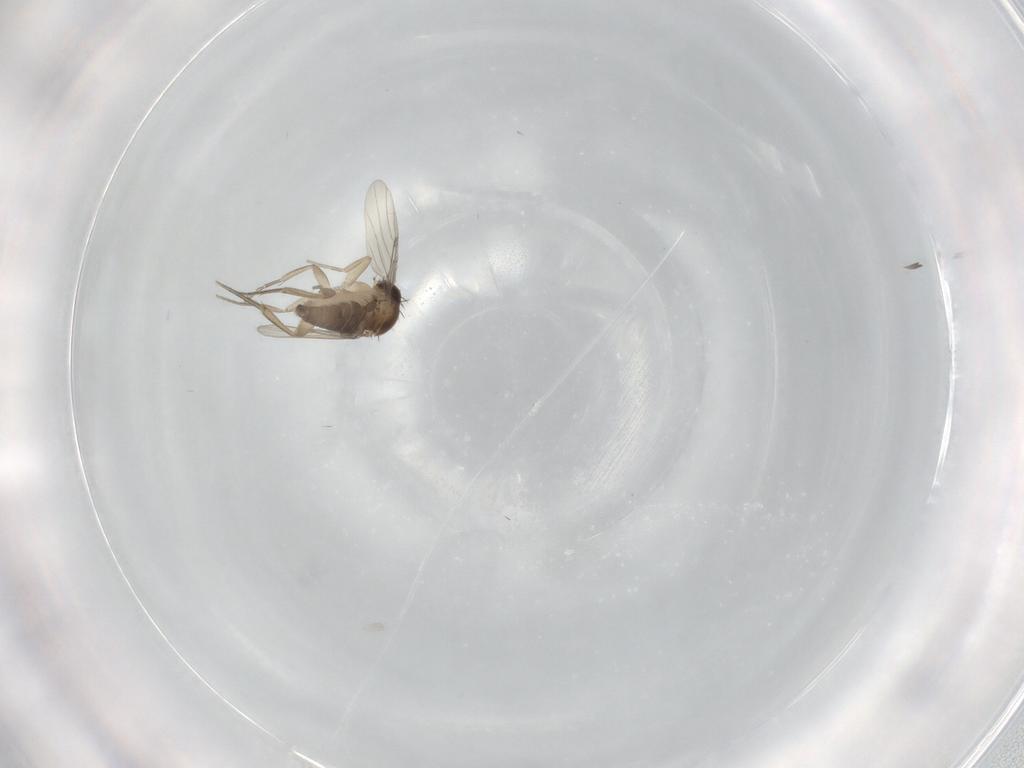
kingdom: Animalia
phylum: Arthropoda
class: Insecta
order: Diptera
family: Phoridae
